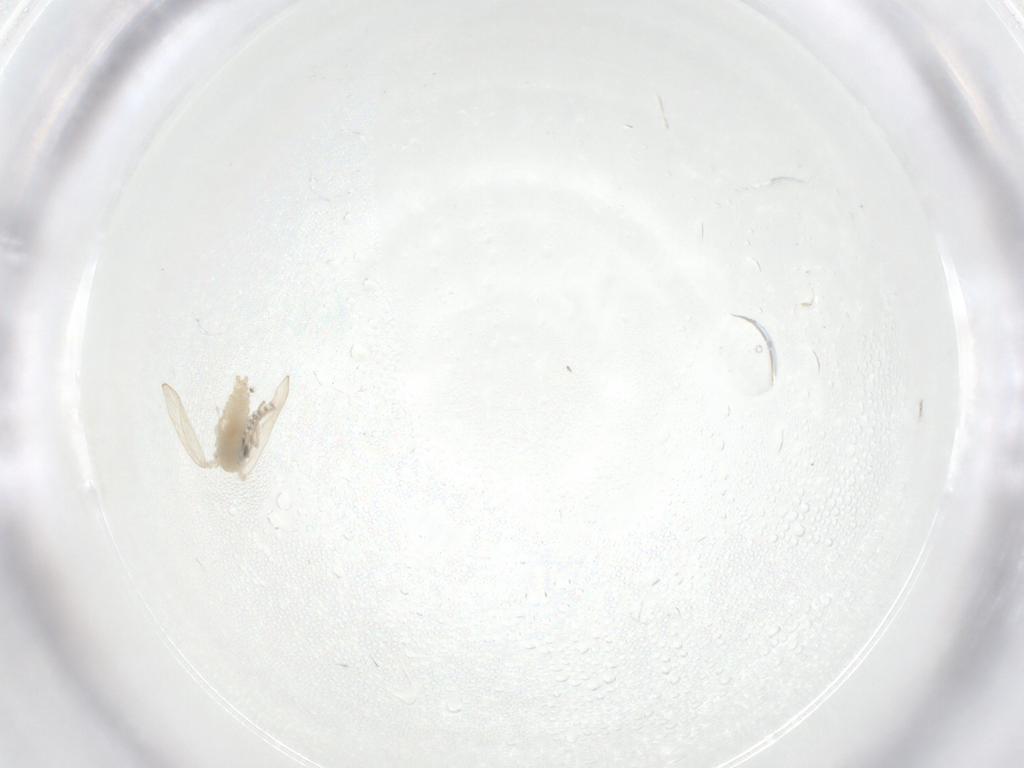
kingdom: Animalia
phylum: Arthropoda
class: Insecta
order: Diptera
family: Psychodidae
